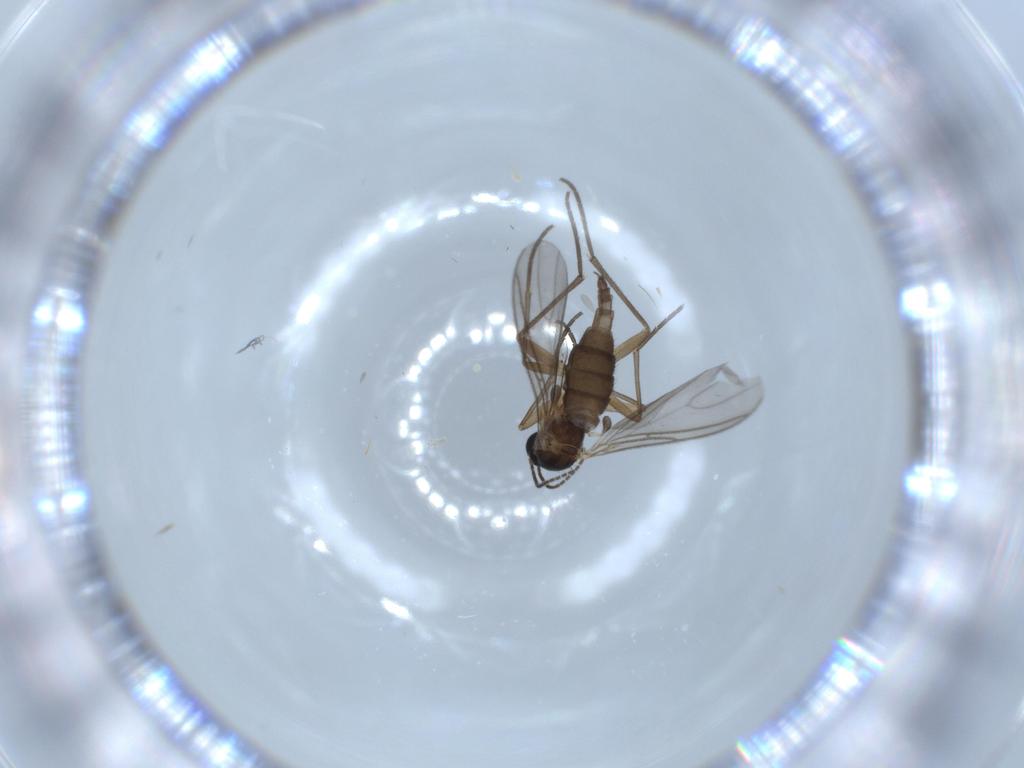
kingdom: Animalia
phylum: Arthropoda
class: Insecta
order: Diptera
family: Sciaridae
